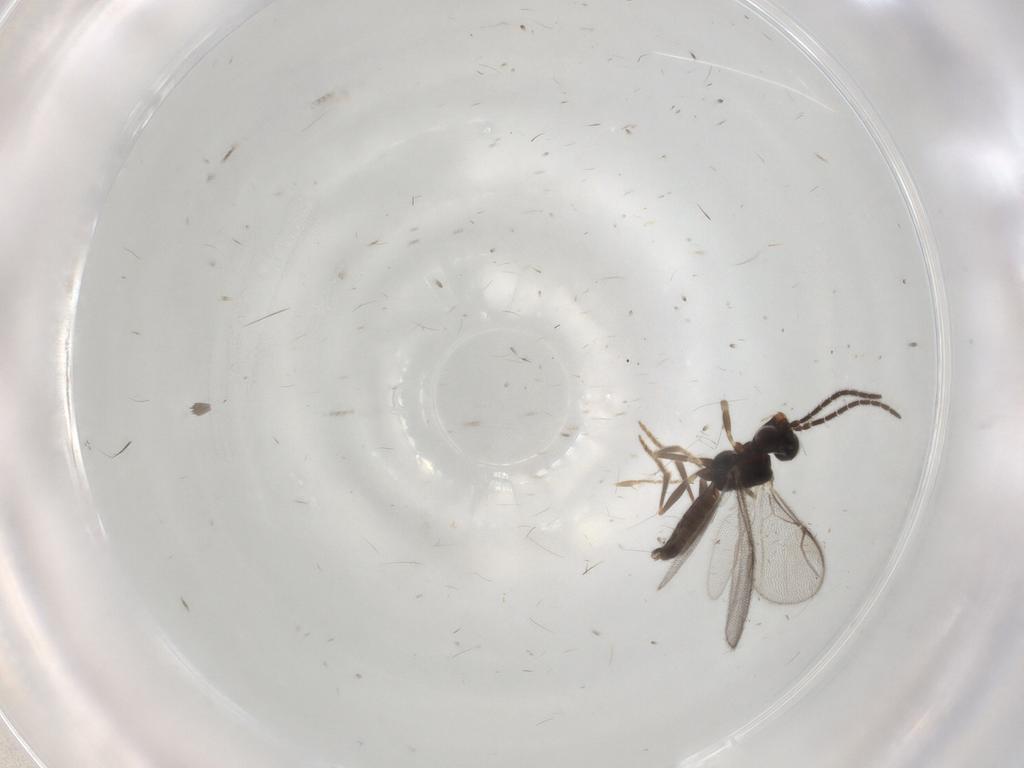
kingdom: Animalia
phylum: Arthropoda
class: Insecta
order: Hymenoptera
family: Dryinidae
